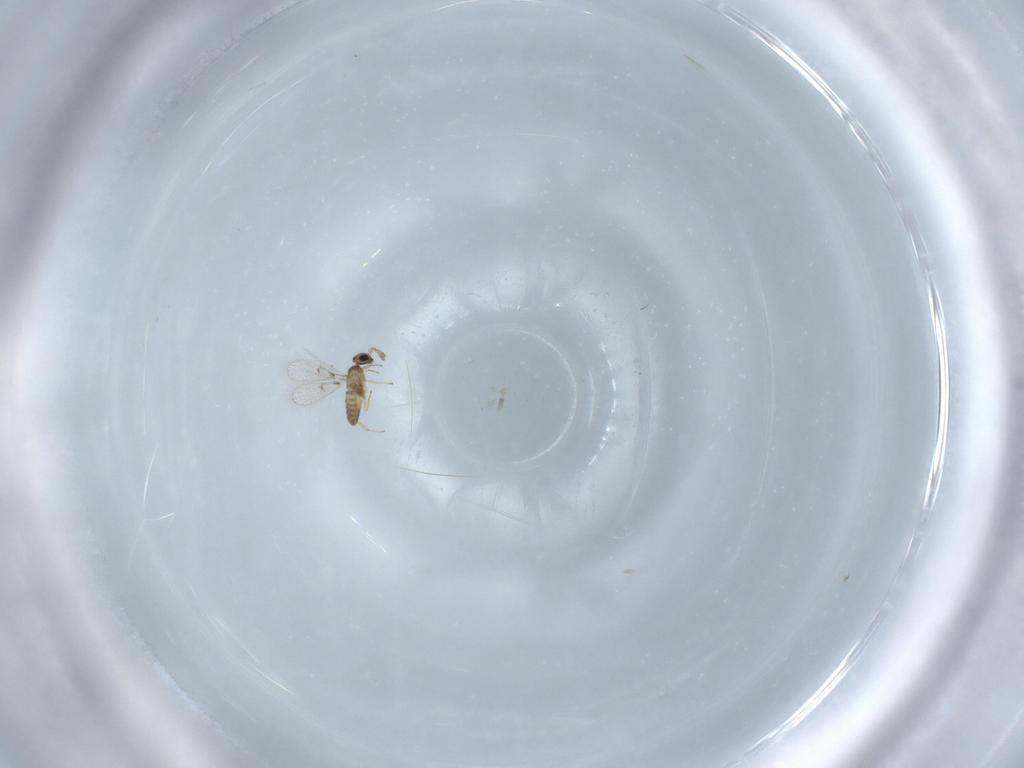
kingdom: Animalia
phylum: Arthropoda
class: Insecta
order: Hymenoptera
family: Trichogrammatidae
